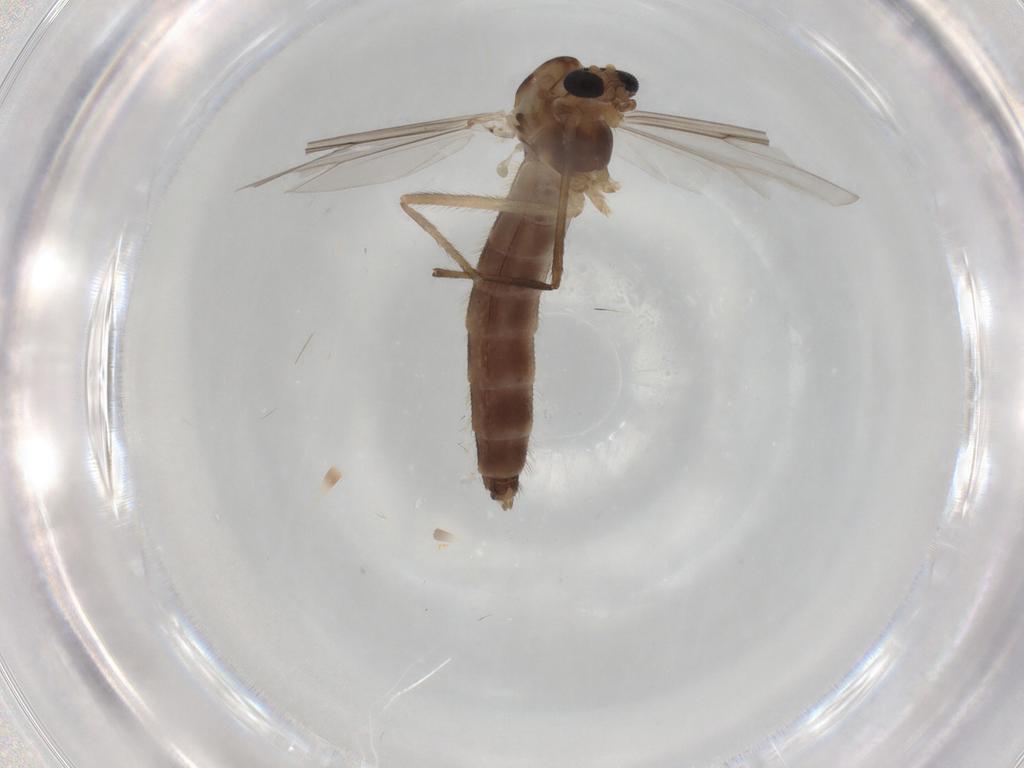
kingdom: Animalia
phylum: Arthropoda
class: Insecta
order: Diptera
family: Chironomidae
